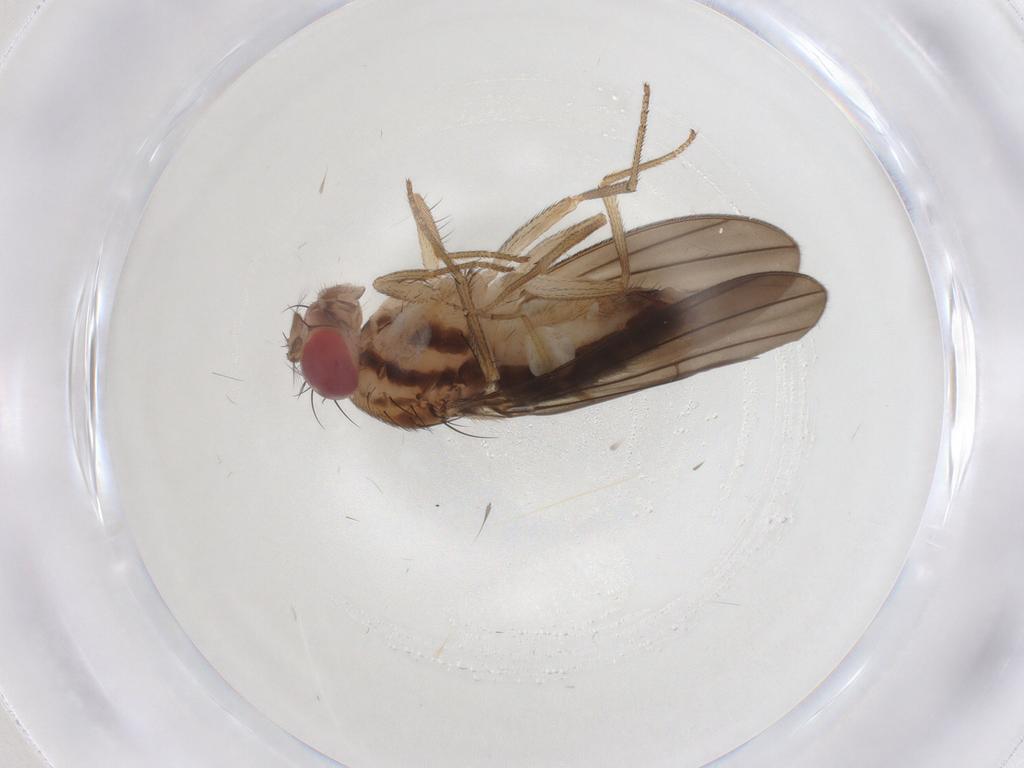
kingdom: Animalia
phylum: Arthropoda
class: Insecta
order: Diptera
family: Drosophilidae
